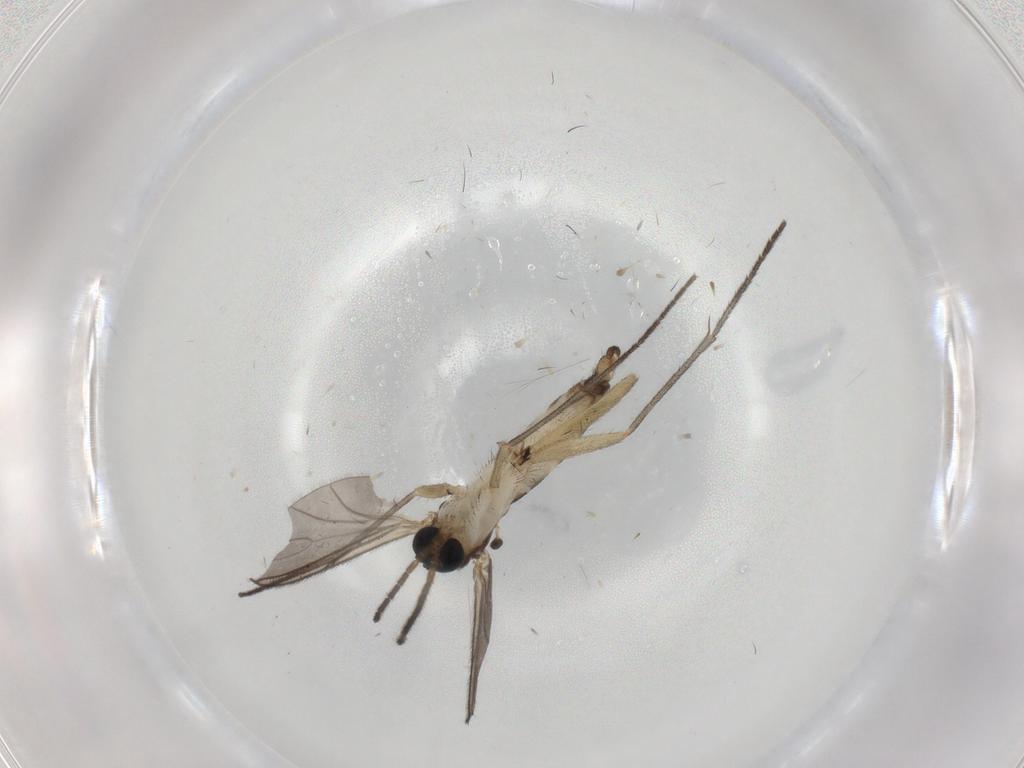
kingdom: Animalia
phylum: Arthropoda
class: Insecta
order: Diptera
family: Sciaridae
